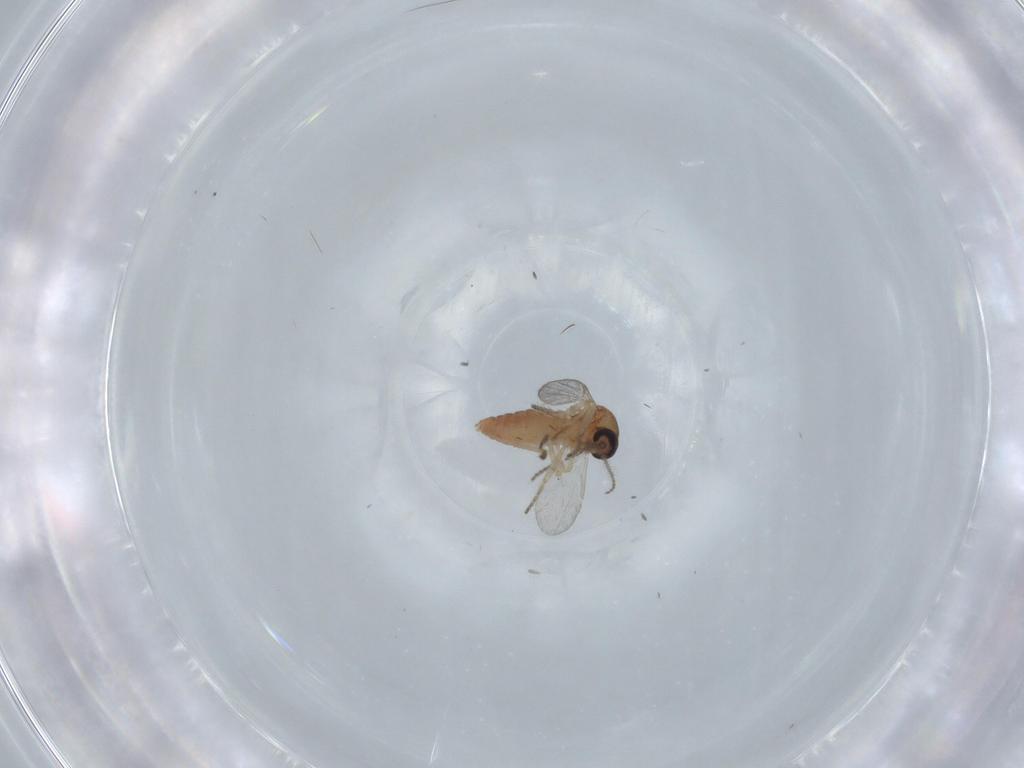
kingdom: Animalia
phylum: Arthropoda
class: Insecta
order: Diptera
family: Ceratopogonidae
